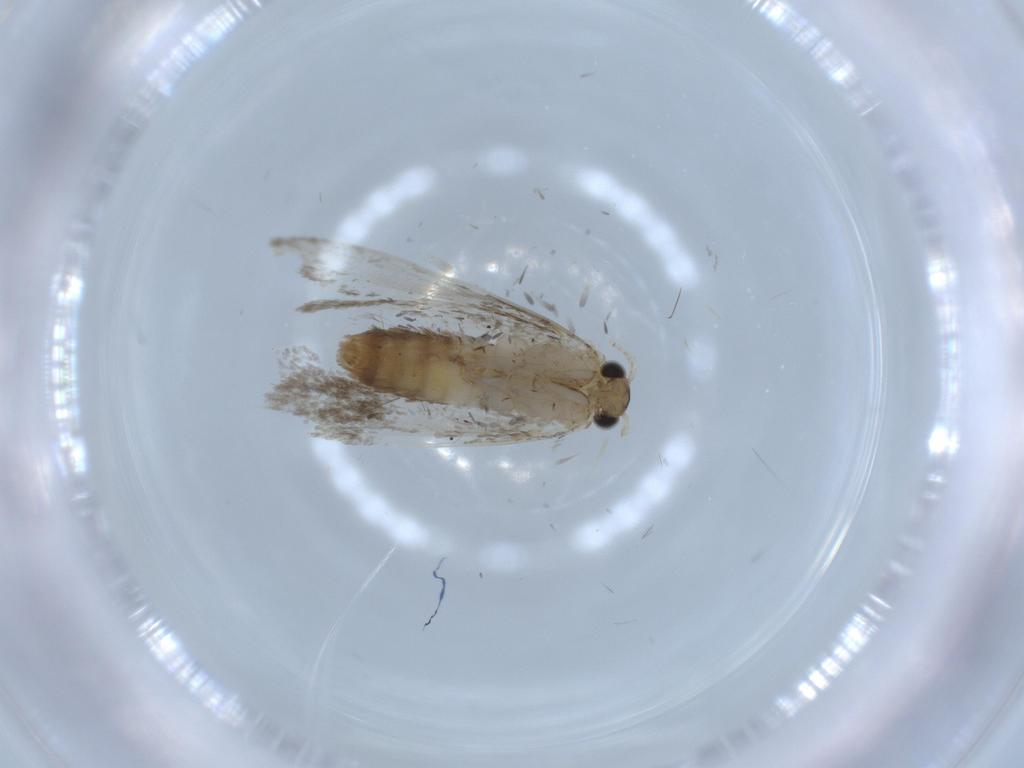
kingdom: Animalia
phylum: Arthropoda
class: Insecta
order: Lepidoptera
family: Tineidae
